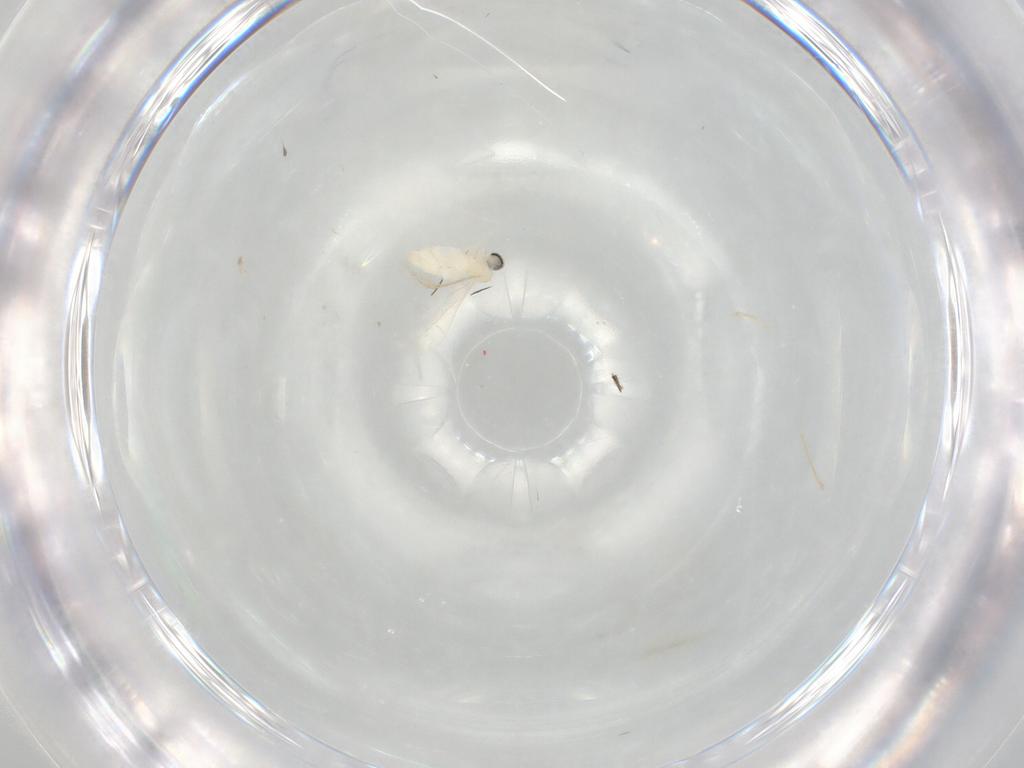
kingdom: Animalia
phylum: Arthropoda
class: Insecta
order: Diptera
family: Cecidomyiidae
